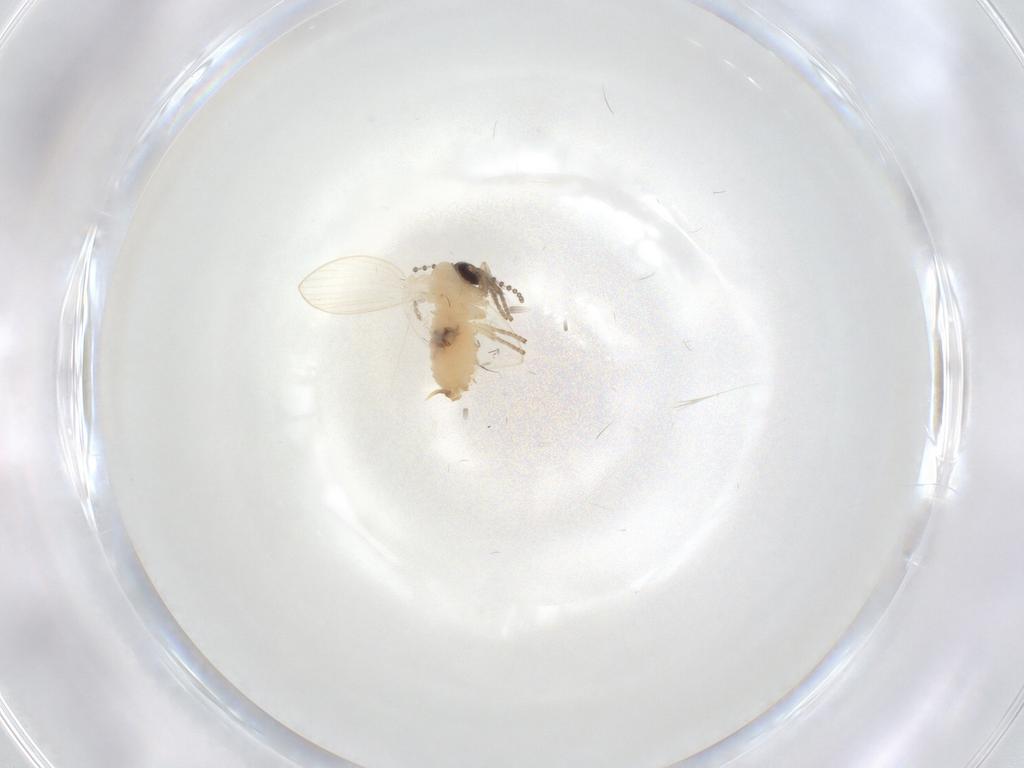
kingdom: Animalia
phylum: Arthropoda
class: Insecta
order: Diptera
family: Psychodidae
